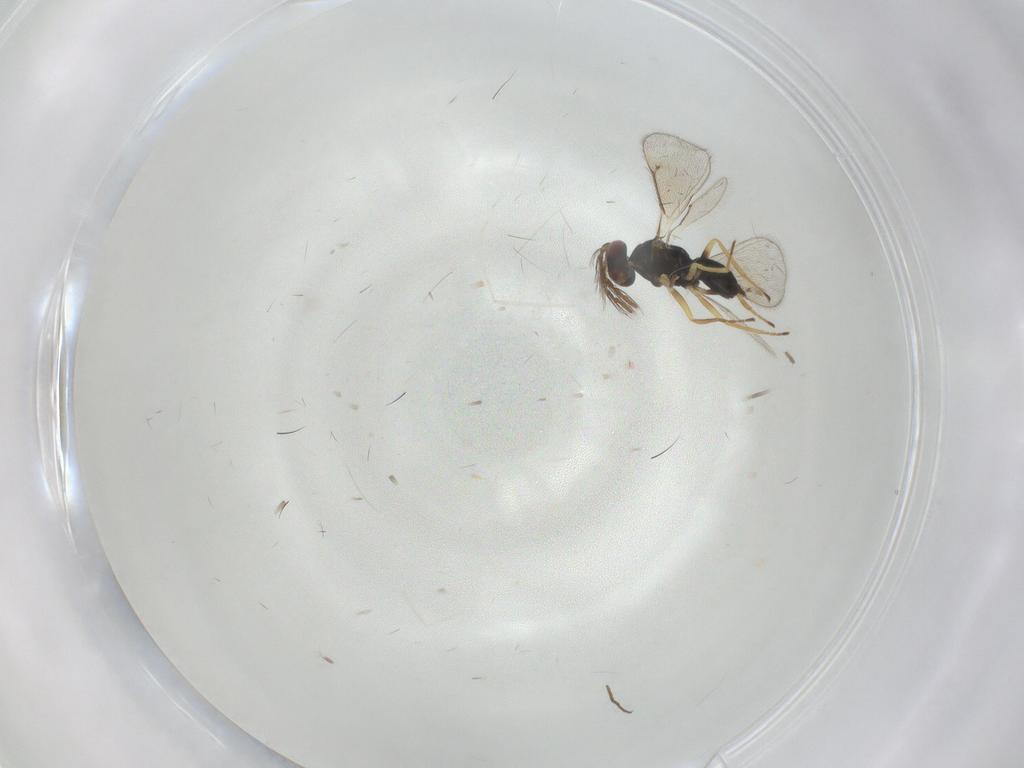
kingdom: Animalia
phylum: Arthropoda
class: Insecta
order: Hymenoptera
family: Eulophidae
